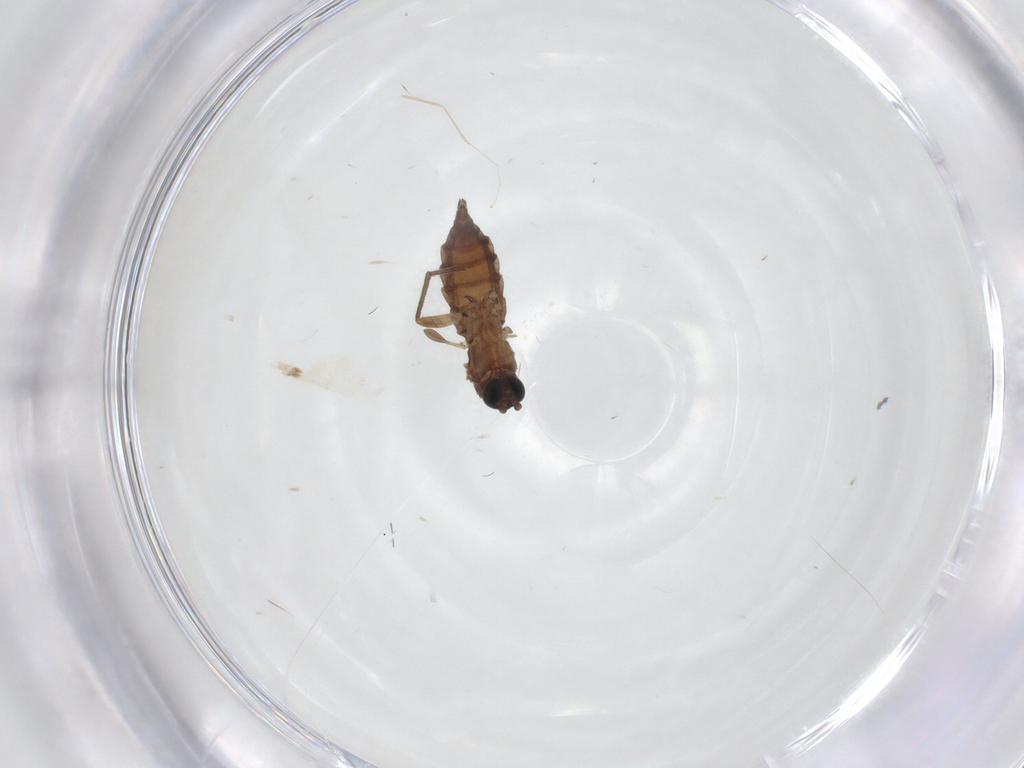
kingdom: Animalia
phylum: Arthropoda
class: Insecta
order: Diptera
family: Sciaridae
